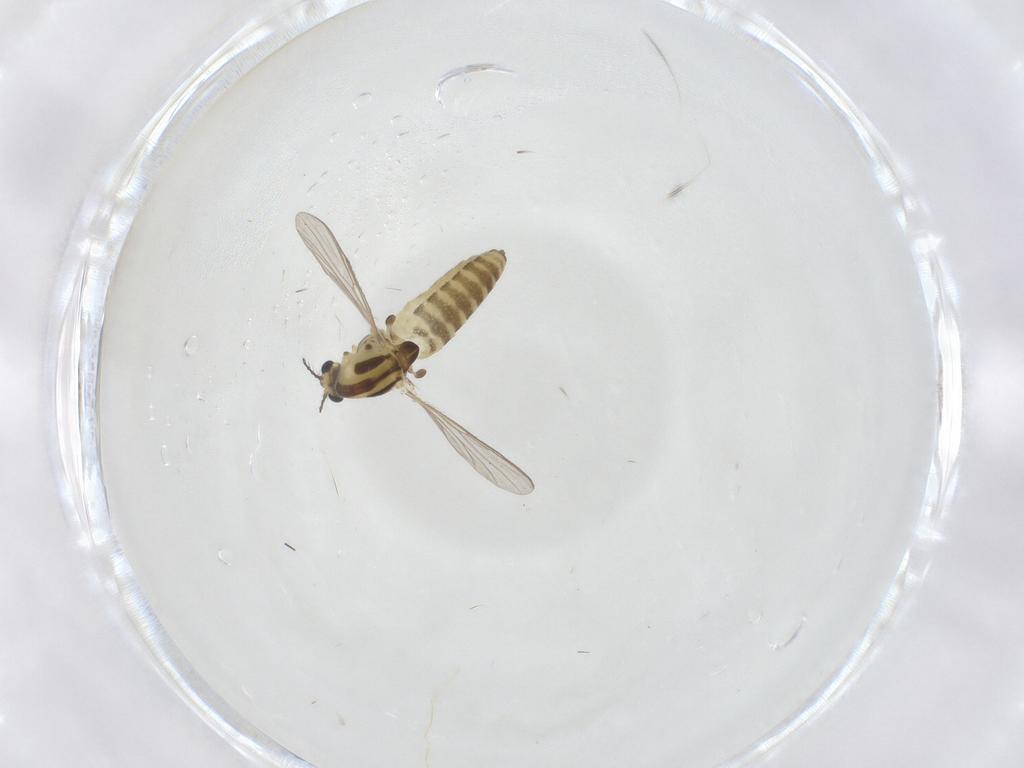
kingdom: Animalia
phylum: Arthropoda
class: Insecta
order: Diptera
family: Chironomidae
